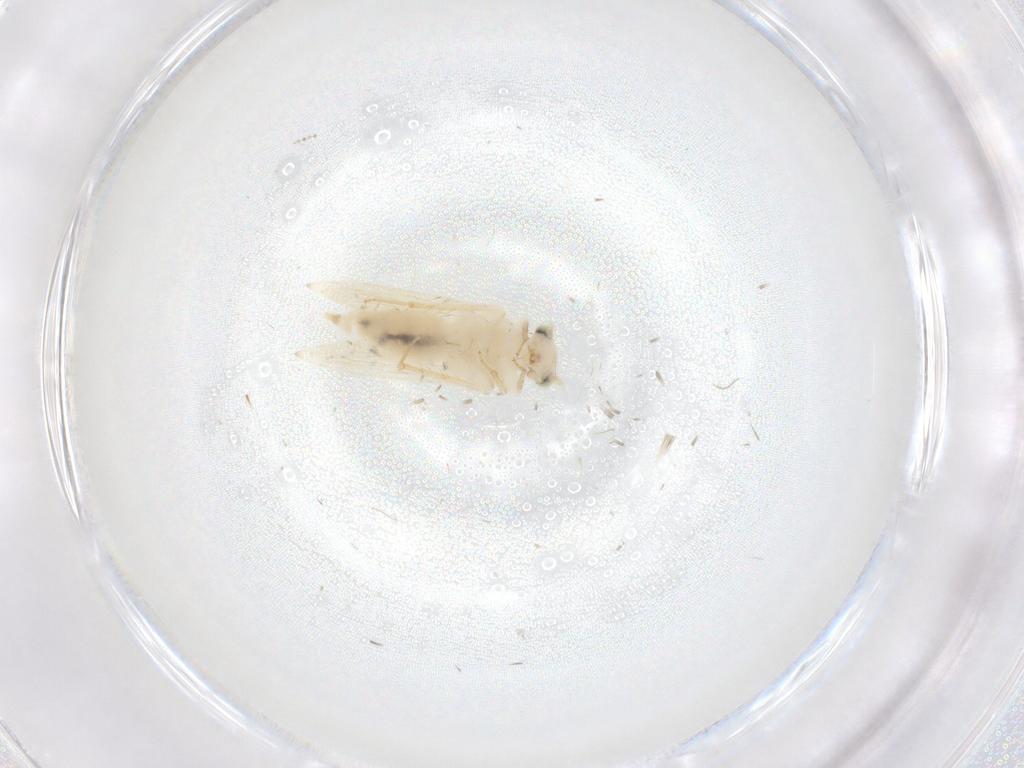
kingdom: Animalia
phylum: Arthropoda
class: Insecta
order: Psocodea
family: Lepidopsocidae
